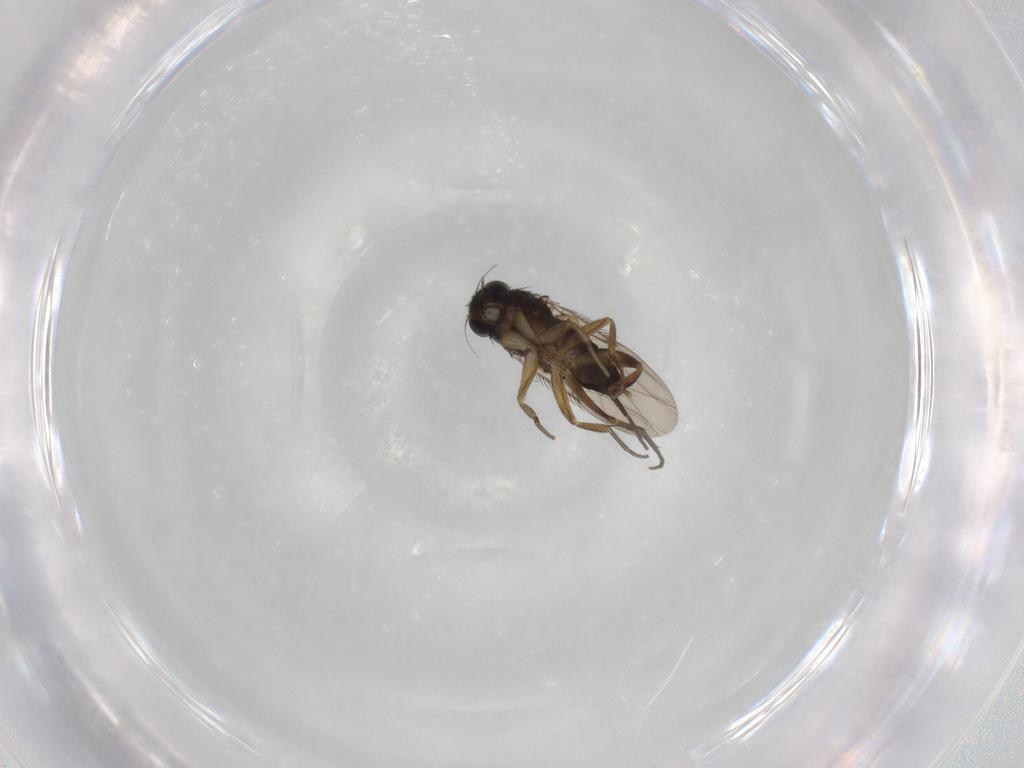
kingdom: Animalia
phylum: Arthropoda
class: Insecta
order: Diptera
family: Phoridae
